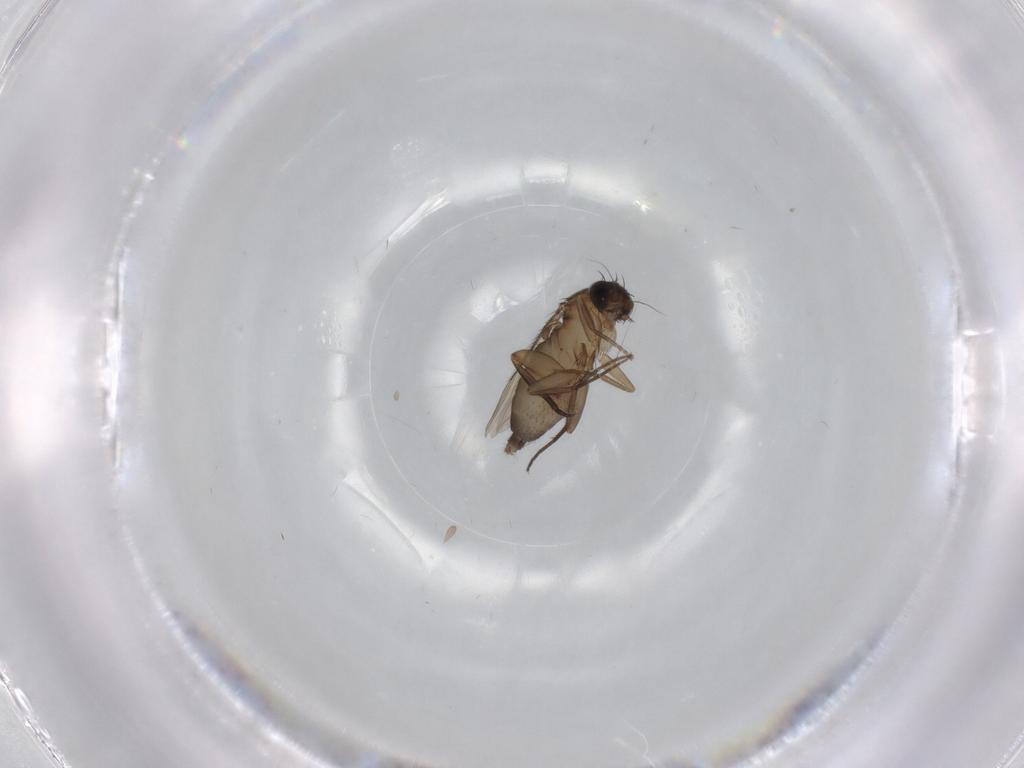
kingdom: Animalia
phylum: Arthropoda
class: Insecta
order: Diptera
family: Phoridae
